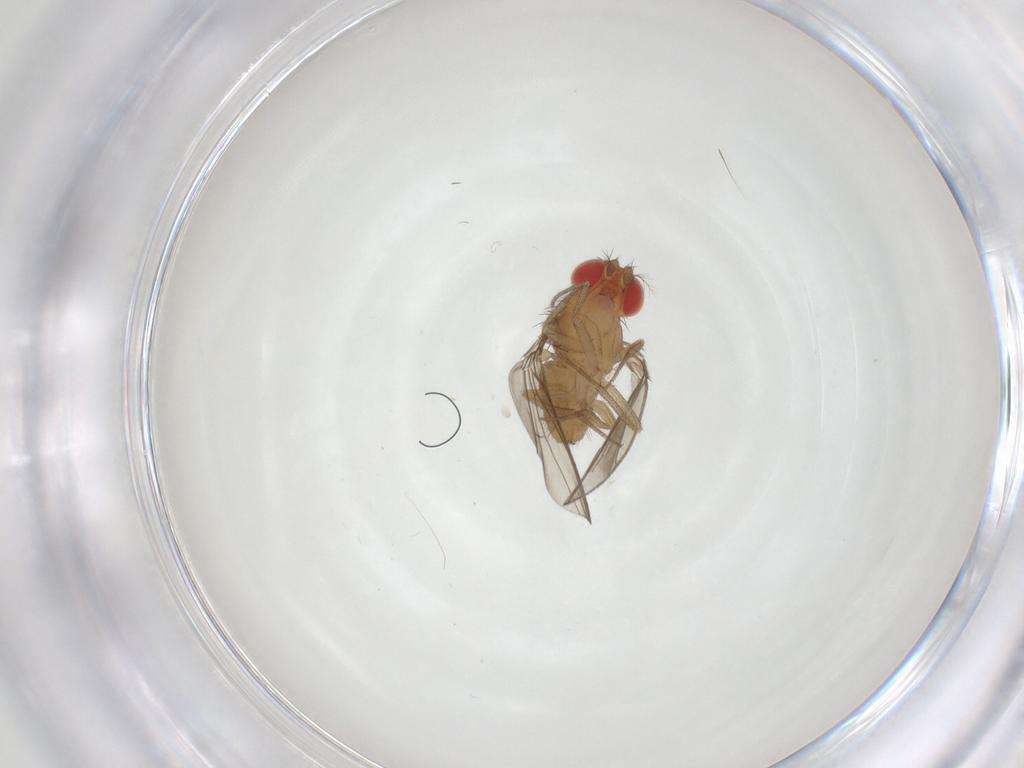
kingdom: Animalia
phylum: Arthropoda
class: Insecta
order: Diptera
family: Drosophilidae
